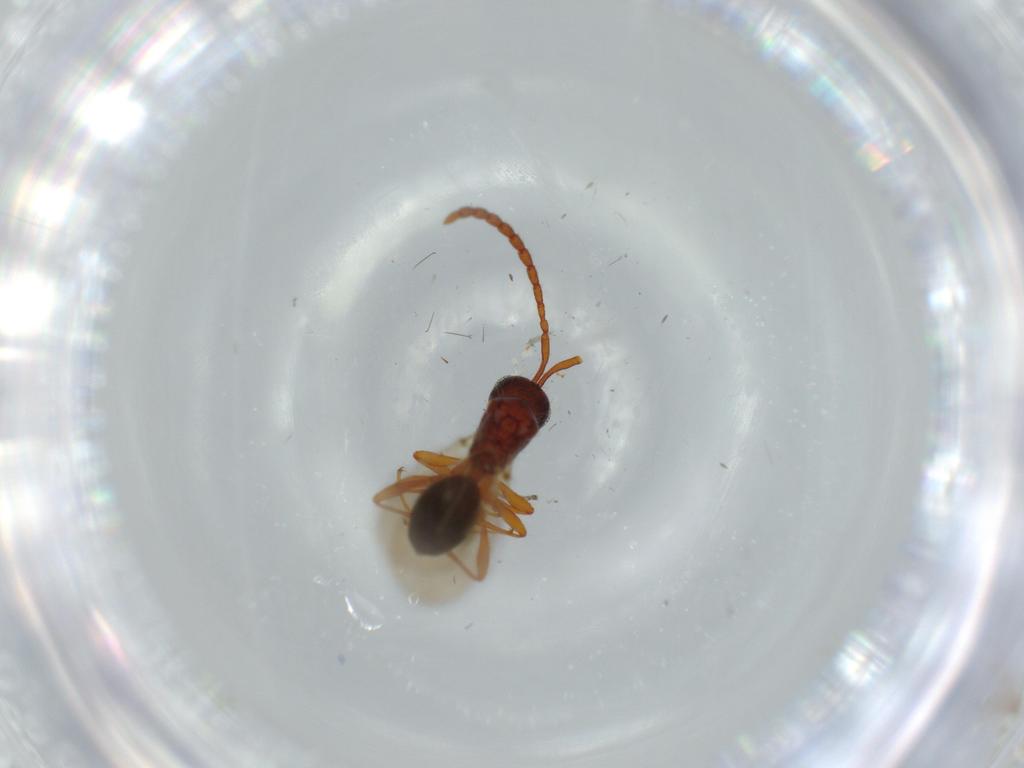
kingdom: Animalia
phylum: Arthropoda
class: Insecta
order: Hymenoptera
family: Diapriidae
